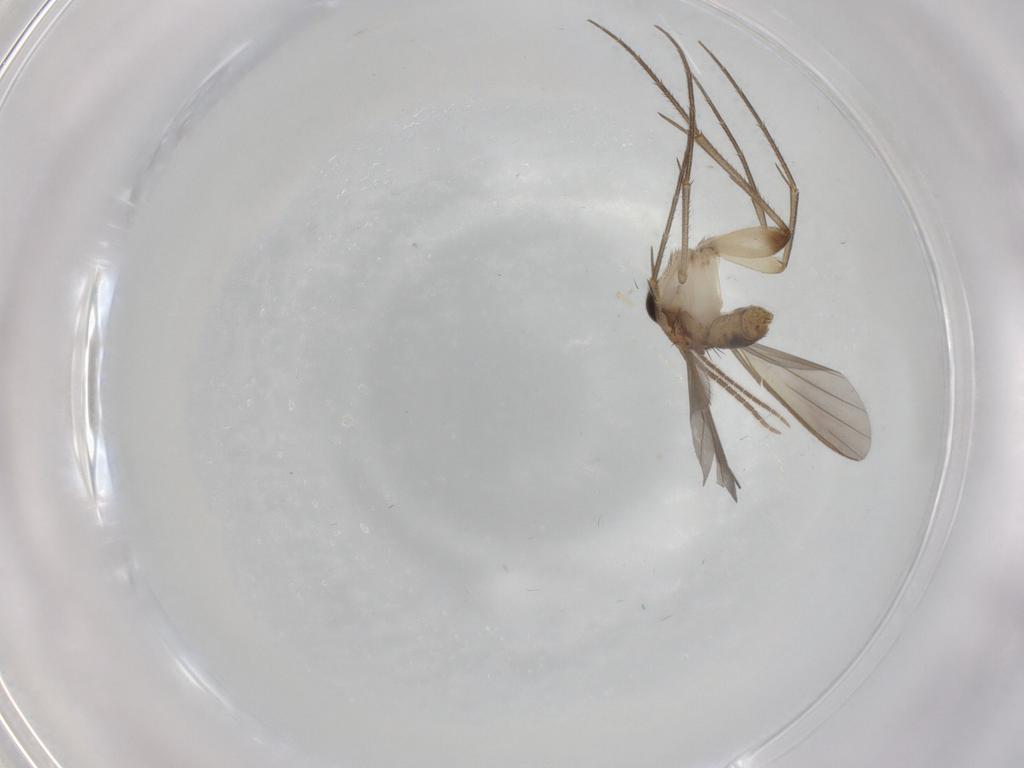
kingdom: Animalia
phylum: Arthropoda
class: Insecta
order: Diptera
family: Mycetophilidae
